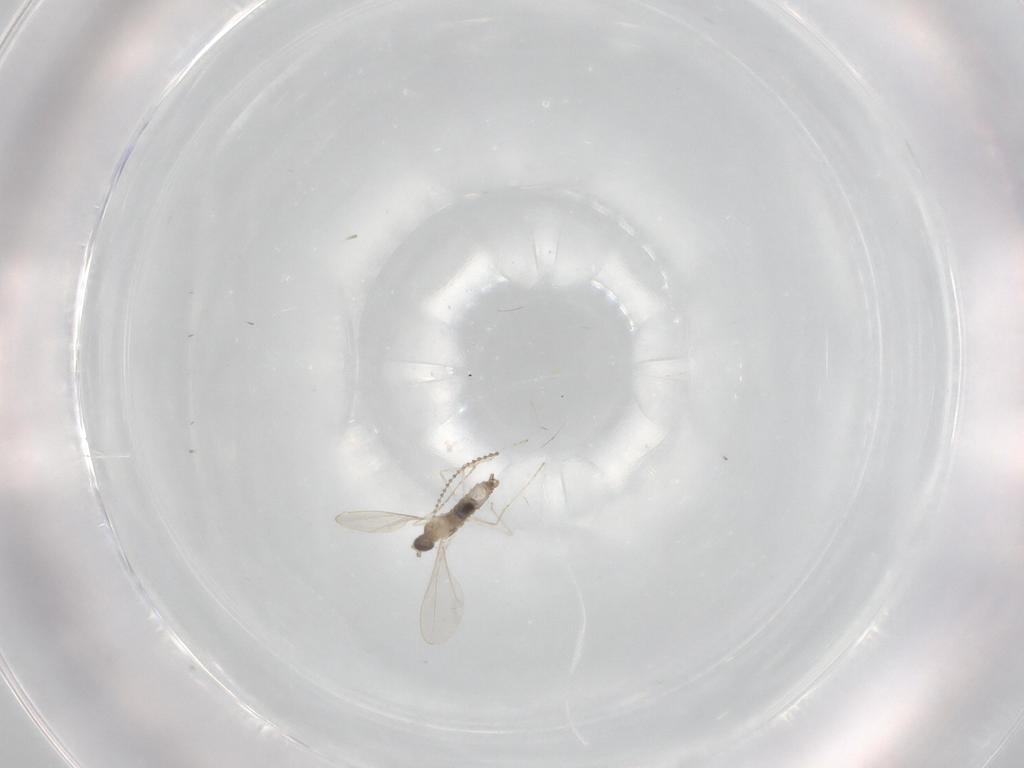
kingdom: Animalia
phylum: Arthropoda
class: Insecta
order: Diptera
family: Cecidomyiidae
